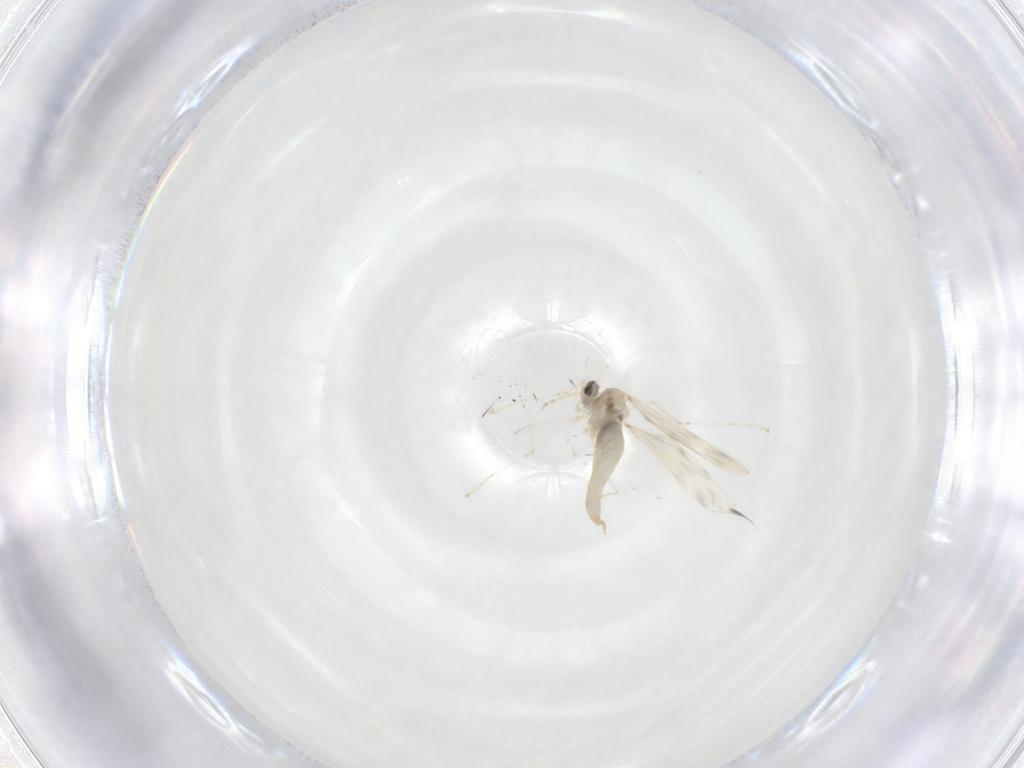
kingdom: Animalia
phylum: Arthropoda
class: Insecta
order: Diptera
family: Cecidomyiidae
